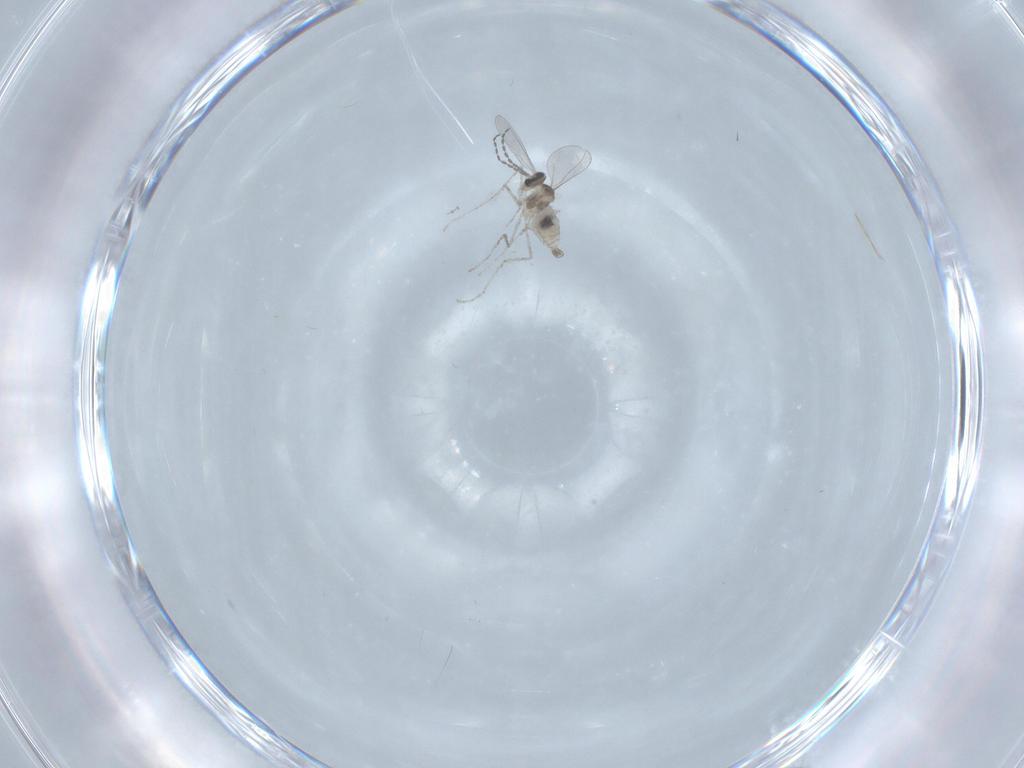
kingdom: Animalia
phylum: Arthropoda
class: Insecta
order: Diptera
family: Cecidomyiidae
